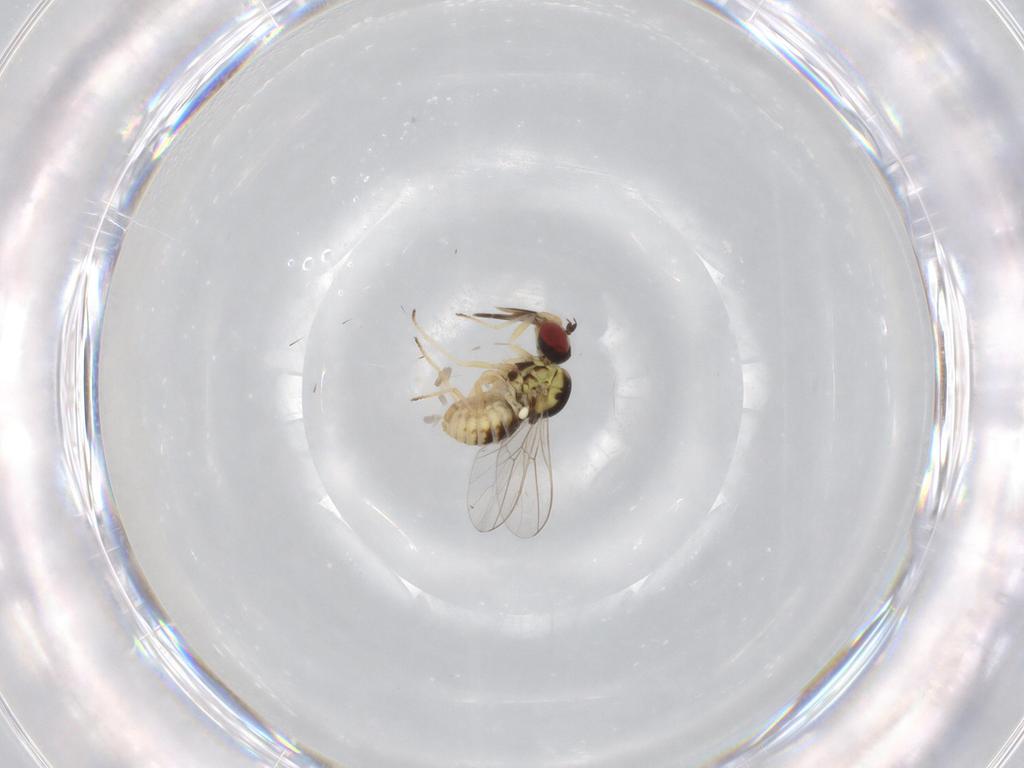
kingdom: Animalia
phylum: Arthropoda
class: Insecta
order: Diptera
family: Bombyliidae
